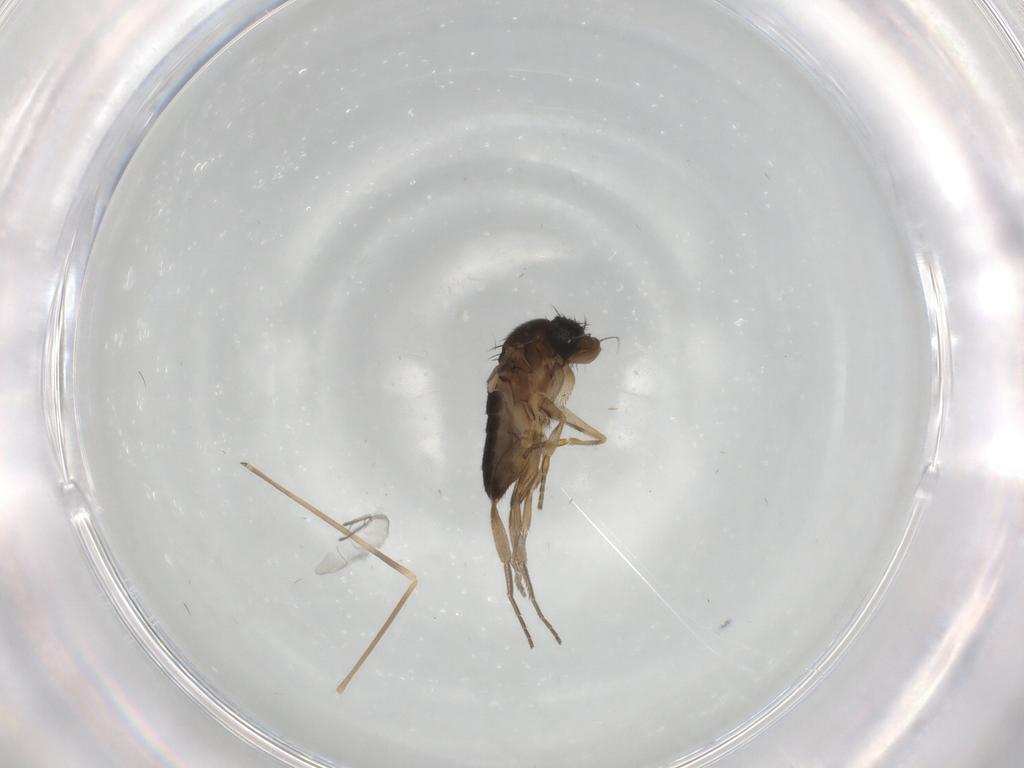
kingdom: Animalia
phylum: Arthropoda
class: Insecta
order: Diptera
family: Phoridae
